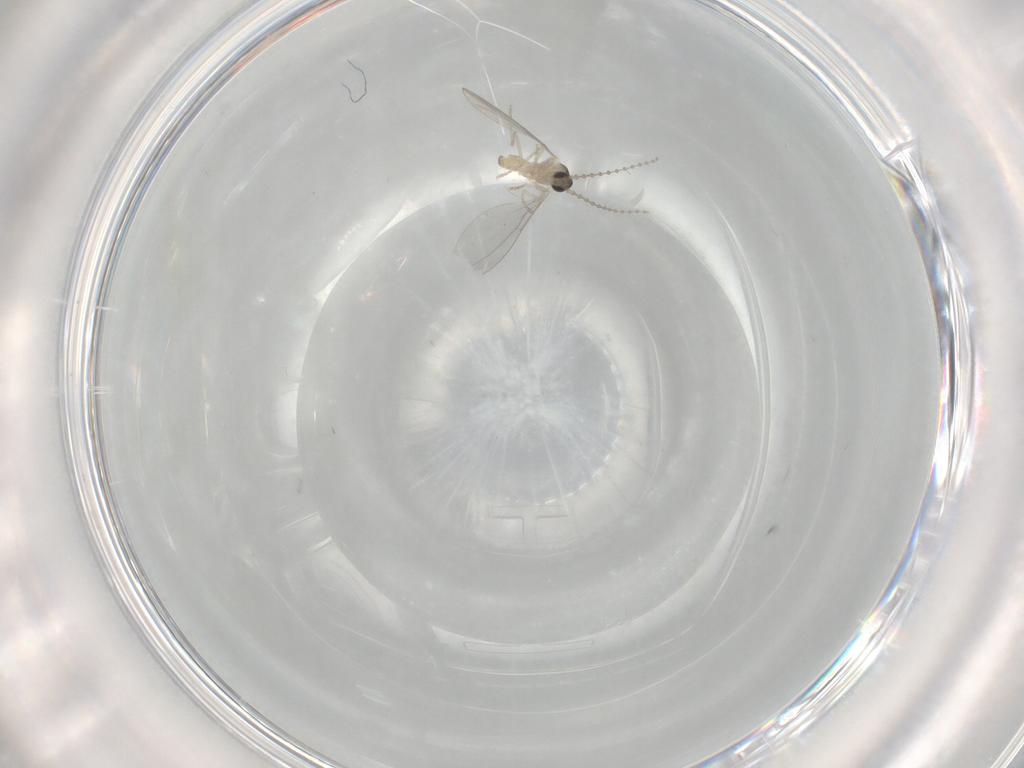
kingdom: Animalia
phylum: Arthropoda
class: Insecta
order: Diptera
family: Cecidomyiidae
